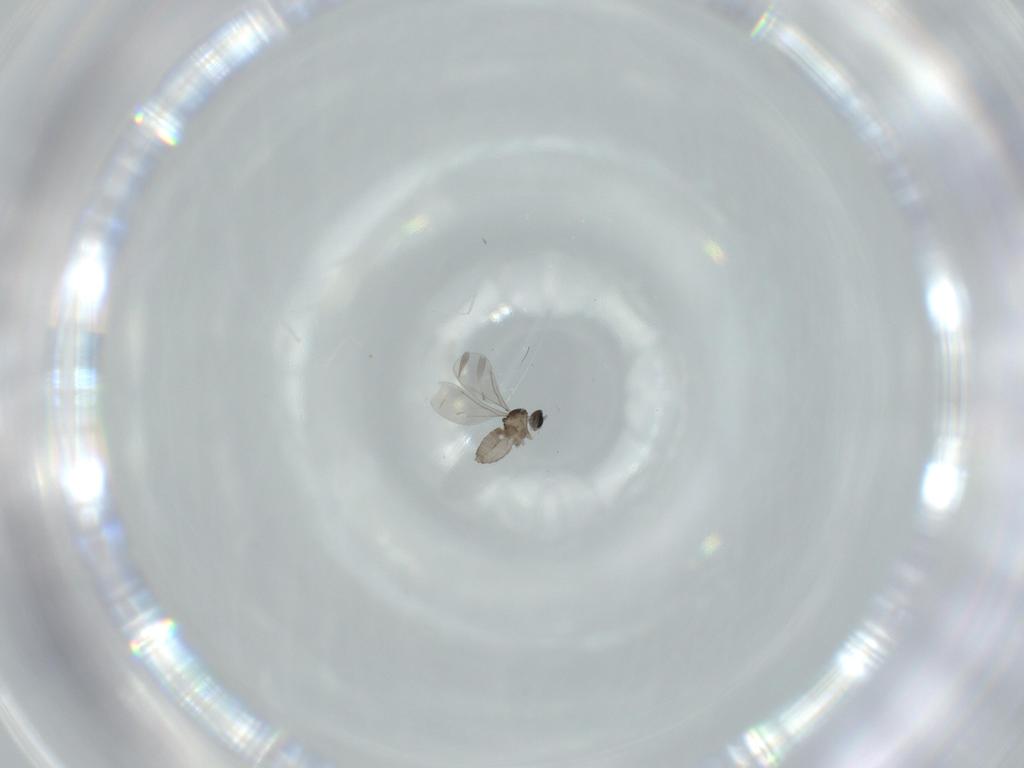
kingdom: Animalia
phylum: Arthropoda
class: Insecta
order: Diptera
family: Cecidomyiidae
